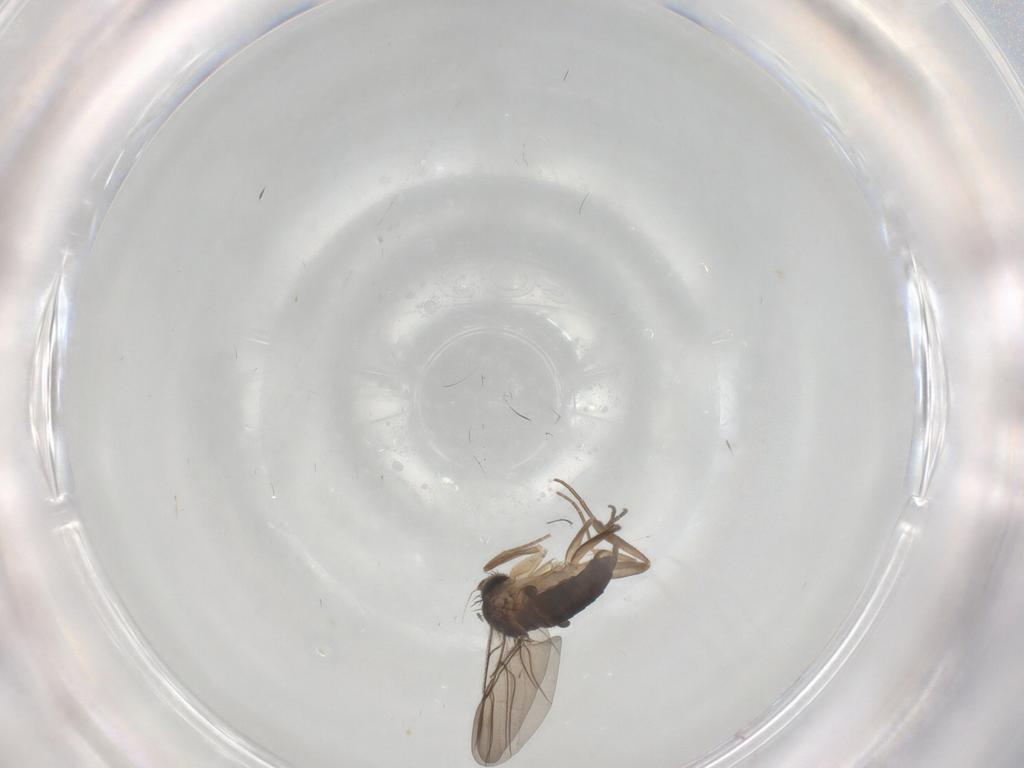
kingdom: Animalia
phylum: Arthropoda
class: Insecta
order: Diptera
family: Phoridae
